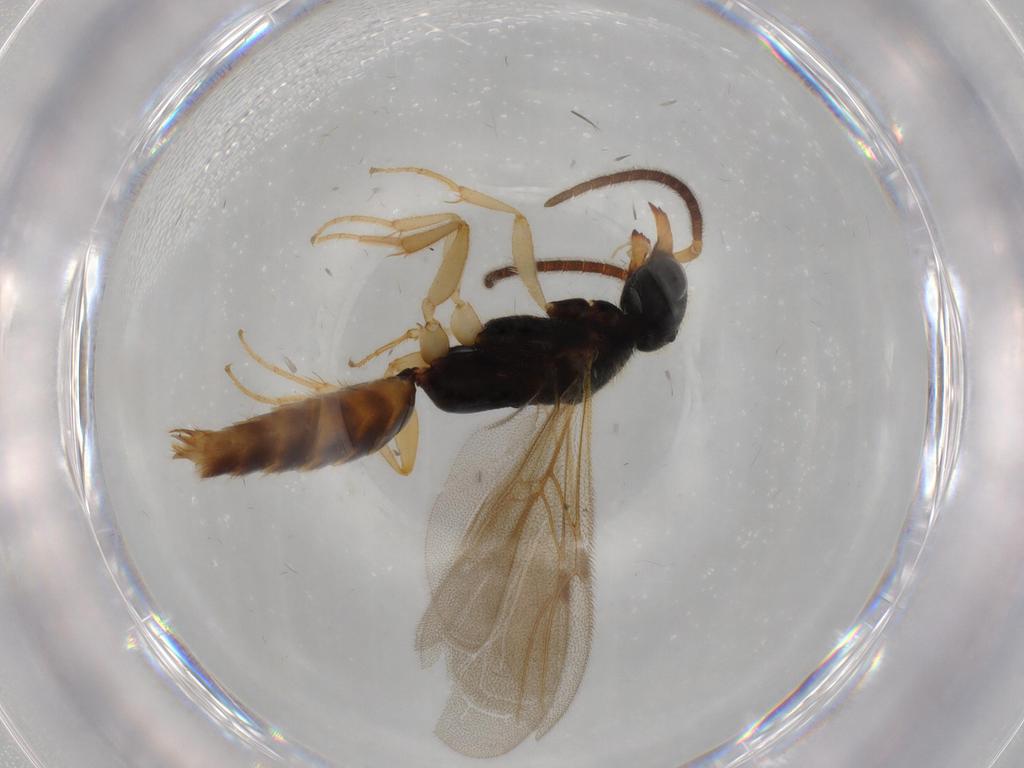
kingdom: Animalia
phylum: Arthropoda
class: Insecta
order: Hymenoptera
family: Bethylidae
